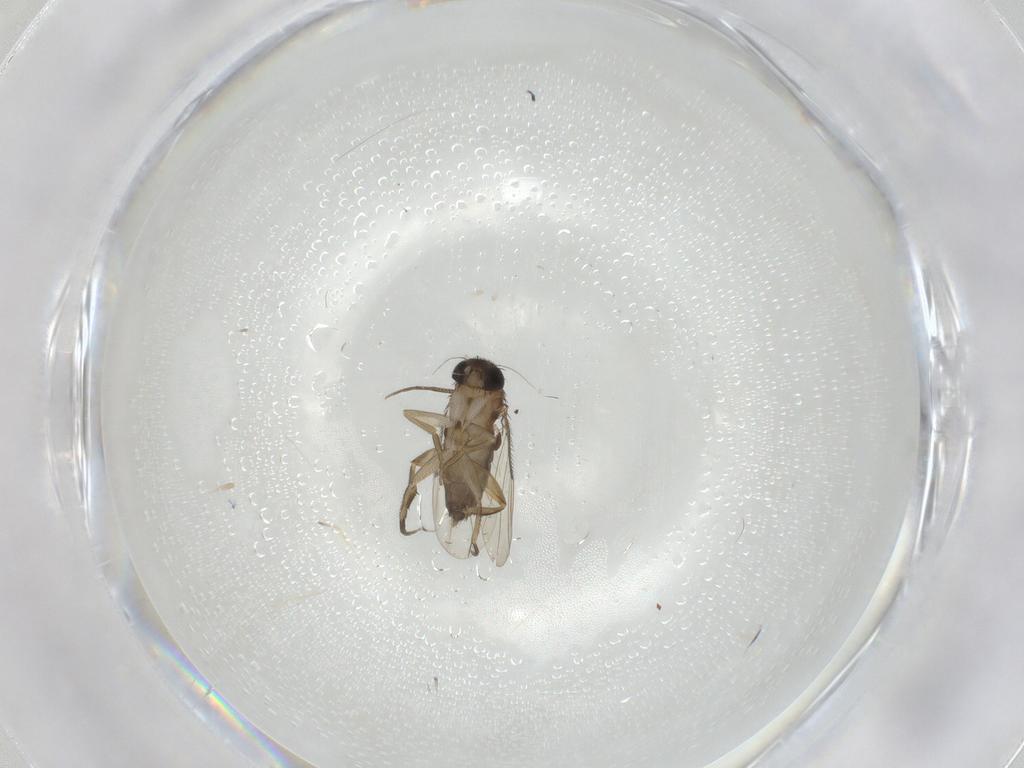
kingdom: Animalia
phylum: Arthropoda
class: Insecta
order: Diptera
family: Phoridae
